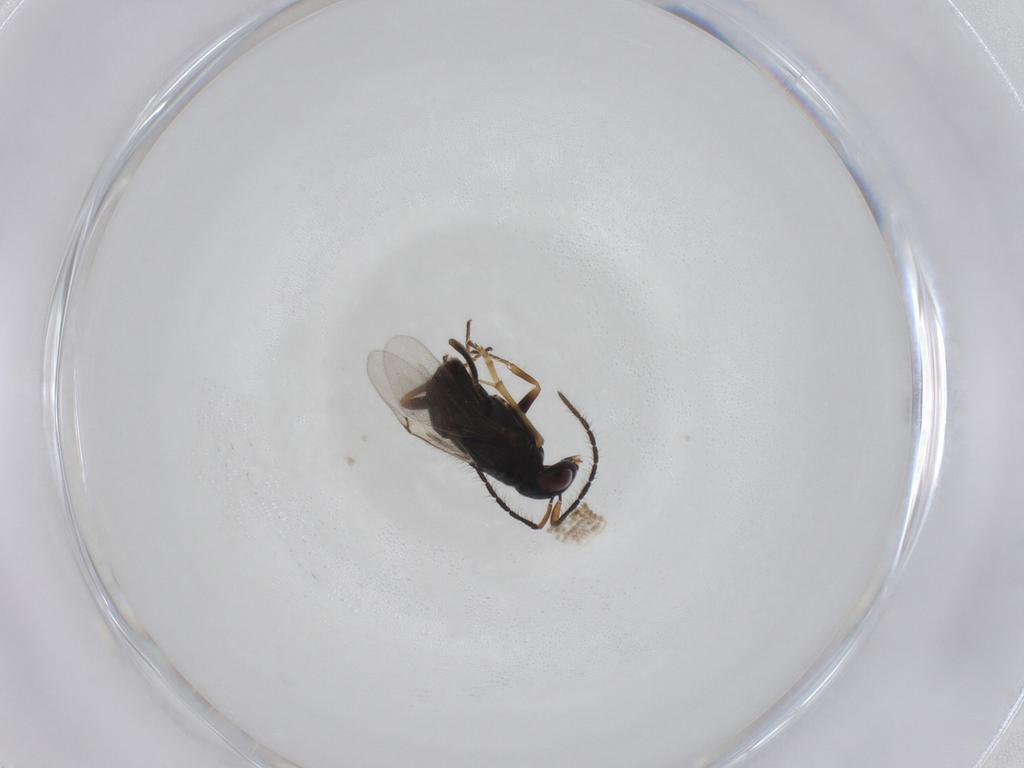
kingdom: Animalia
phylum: Arthropoda
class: Insecta
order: Hymenoptera
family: Encyrtidae
